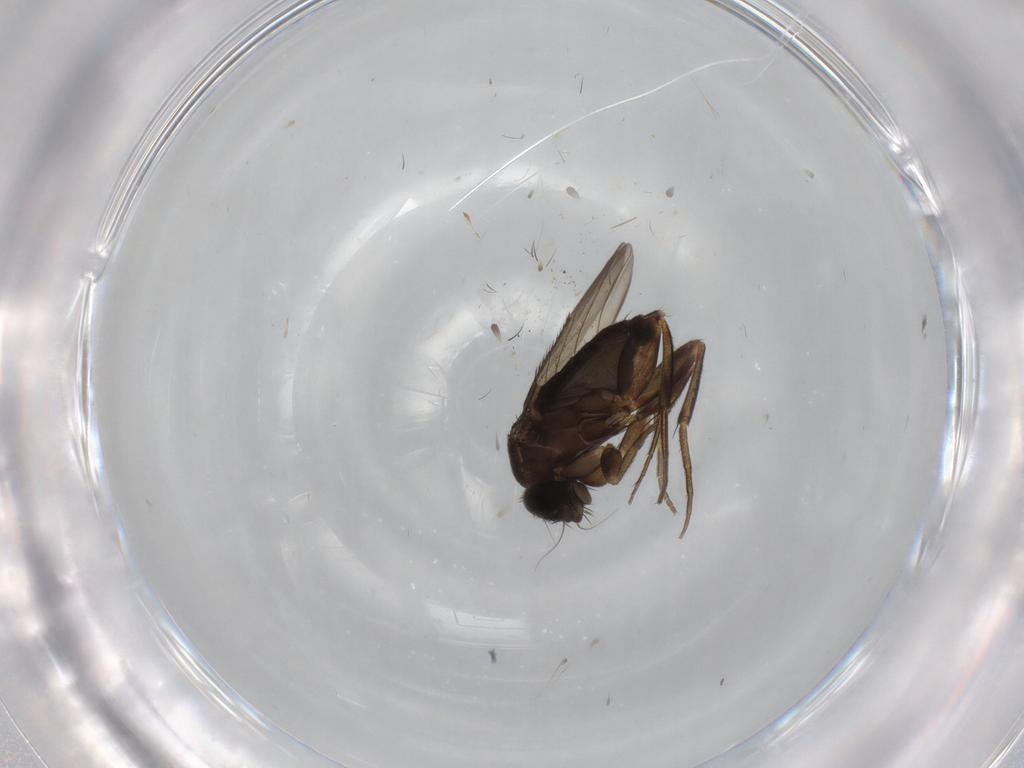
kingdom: Animalia
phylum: Arthropoda
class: Insecta
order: Diptera
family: Phoridae
